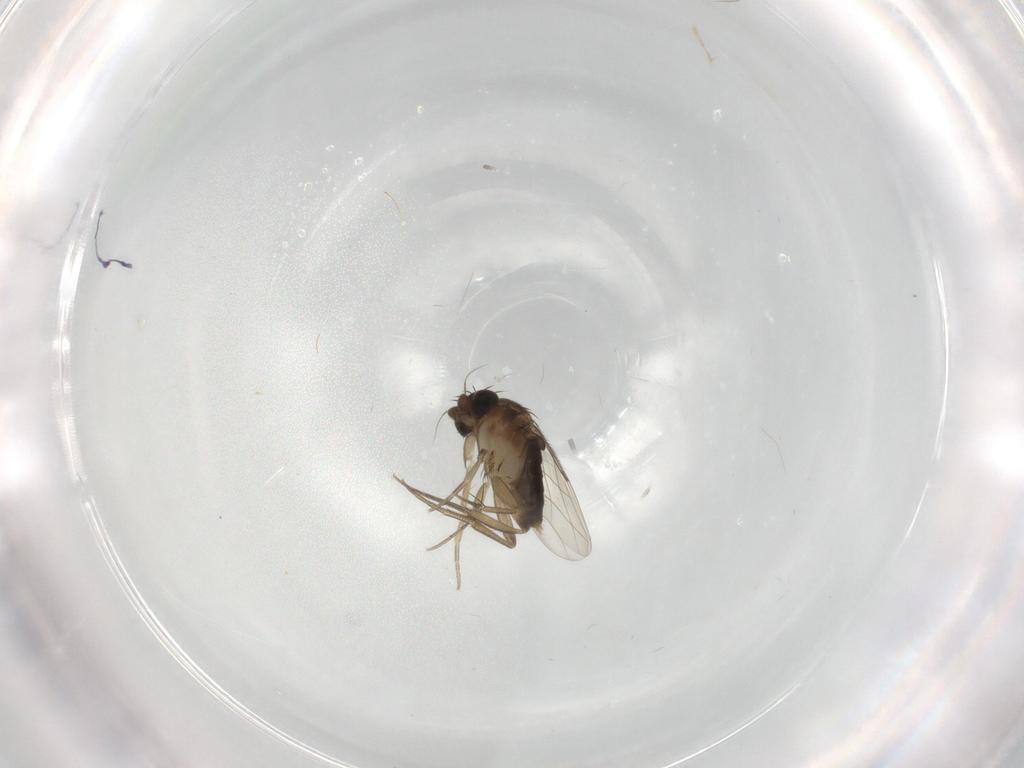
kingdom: Animalia
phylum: Arthropoda
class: Insecta
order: Diptera
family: Phoridae
